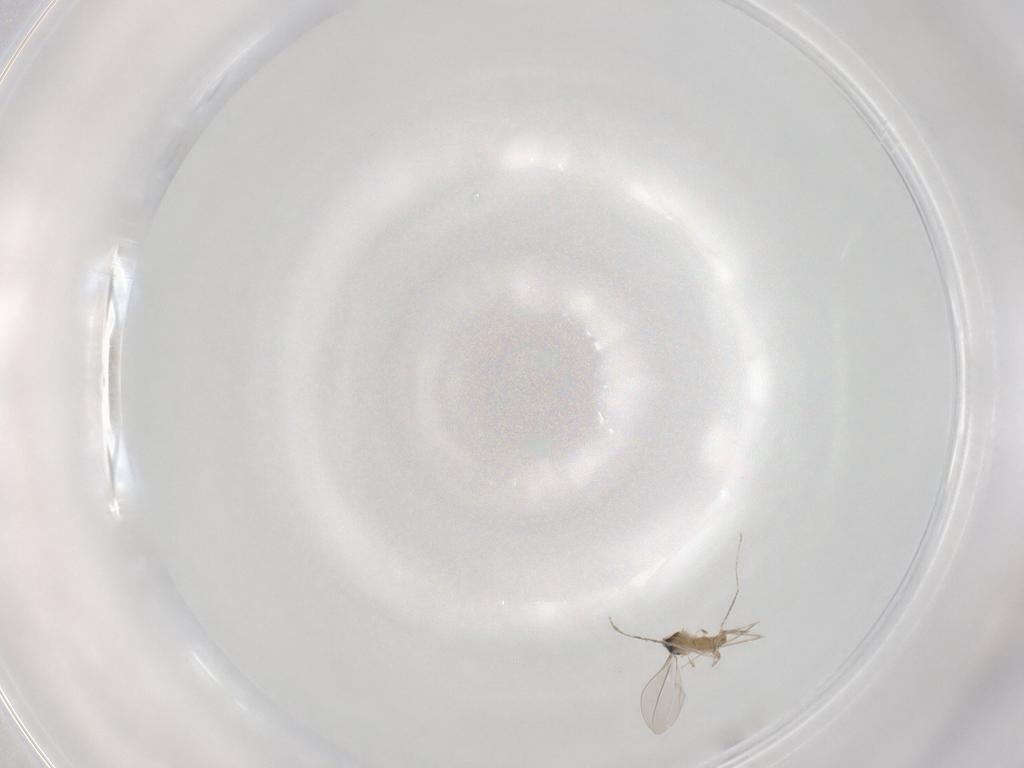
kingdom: Animalia
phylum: Arthropoda
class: Insecta
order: Diptera
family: Cecidomyiidae
